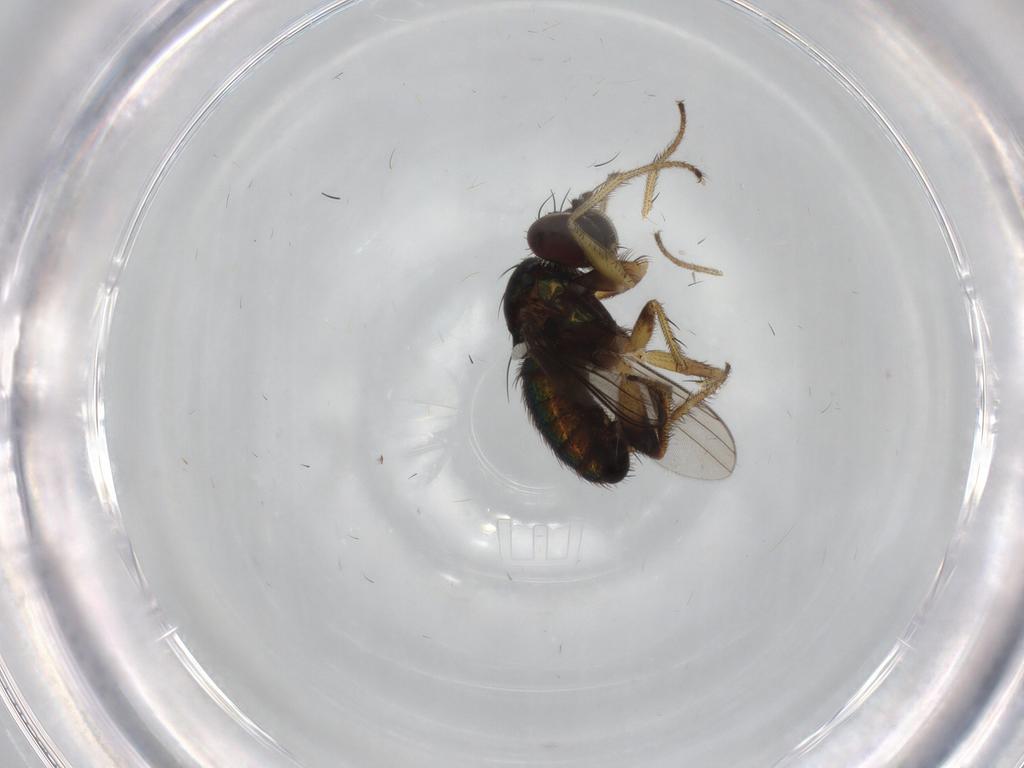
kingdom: Animalia
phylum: Arthropoda
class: Insecta
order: Diptera
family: Dolichopodidae
